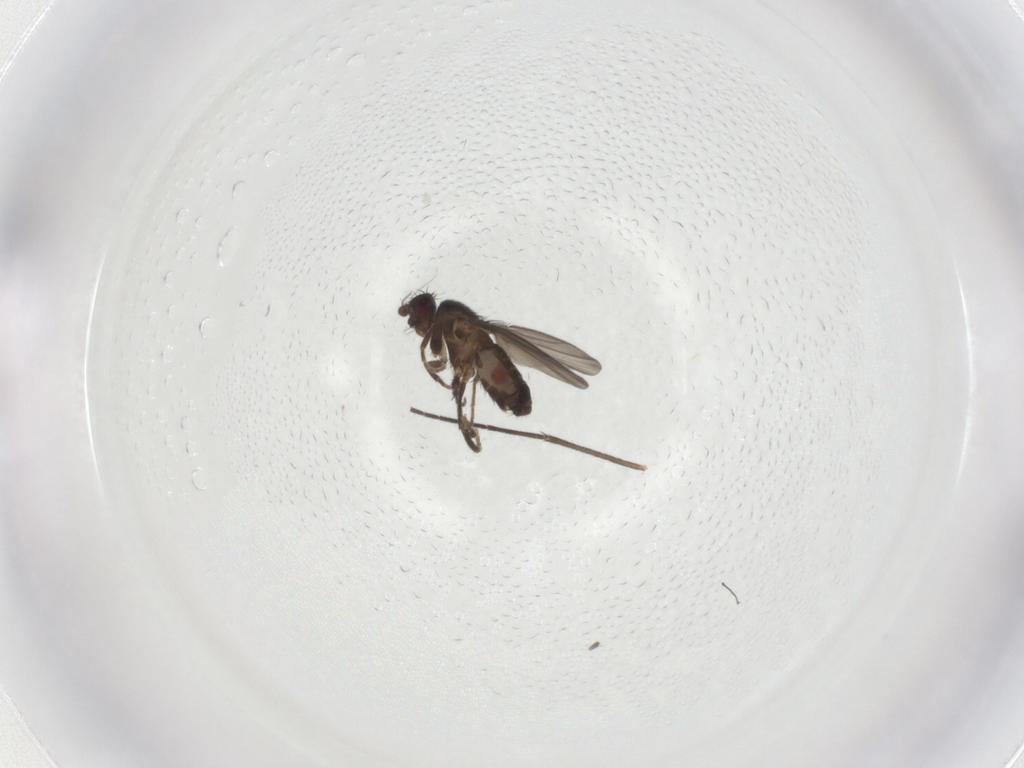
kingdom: Animalia
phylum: Arthropoda
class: Insecta
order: Diptera
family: Sphaeroceridae
